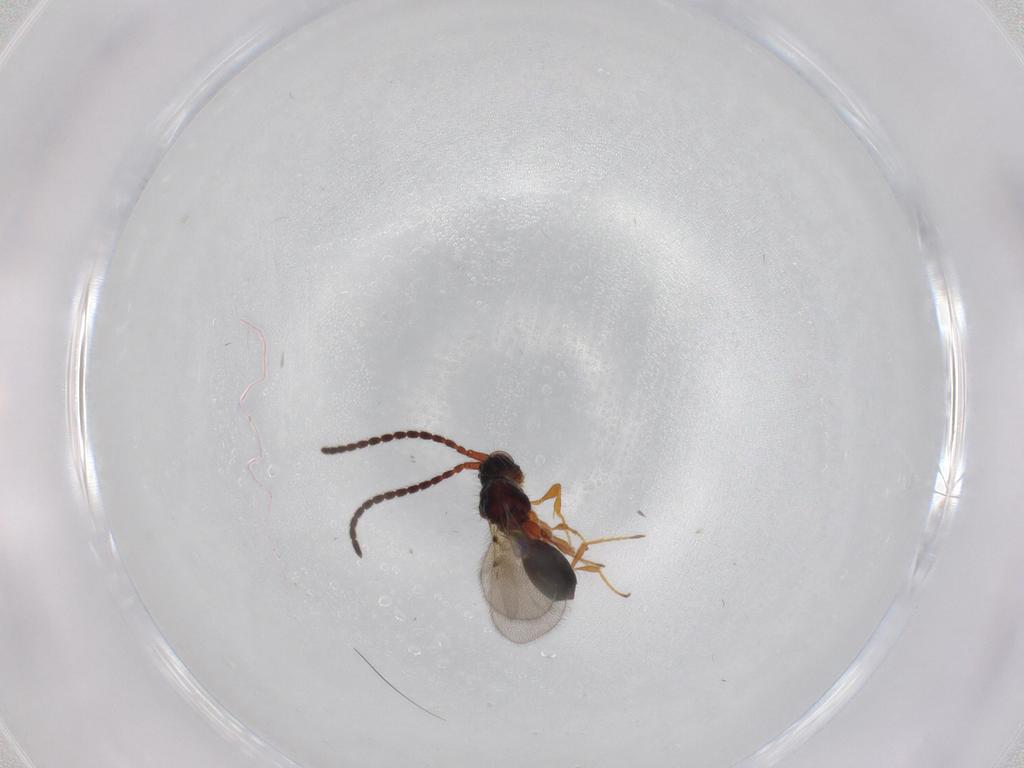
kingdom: Animalia
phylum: Arthropoda
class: Insecta
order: Hymenoptera
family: Diapriidae
